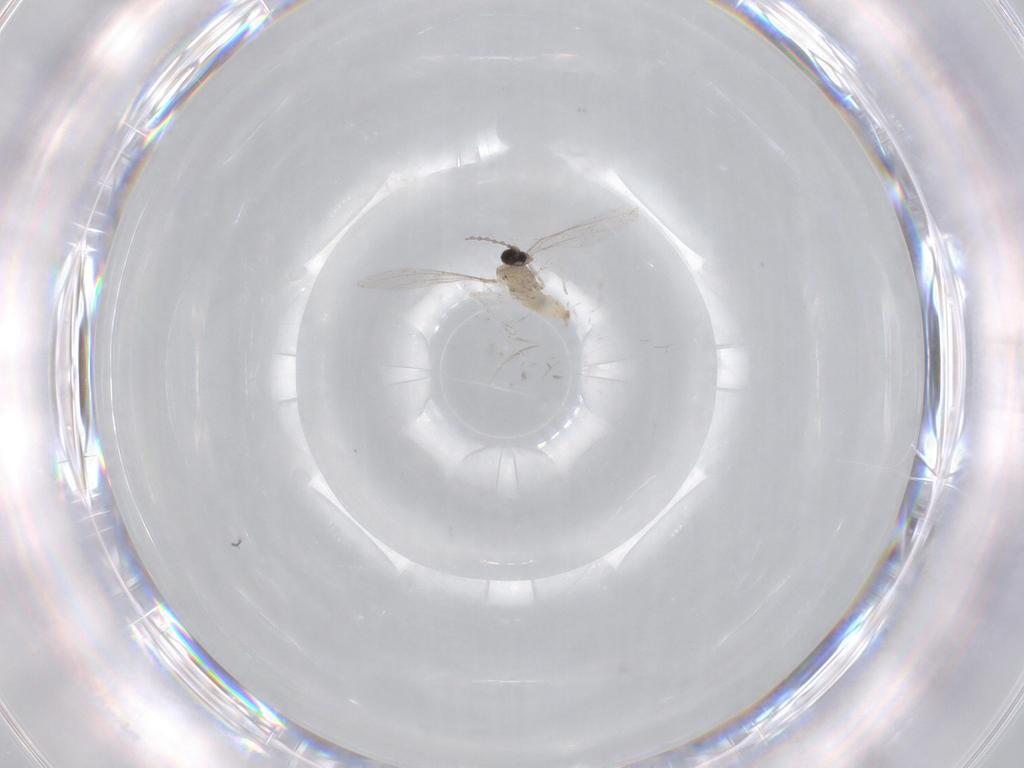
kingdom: Animalia
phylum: Arthropoda
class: Insecta
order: Diptera
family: Cecidomyiidae
